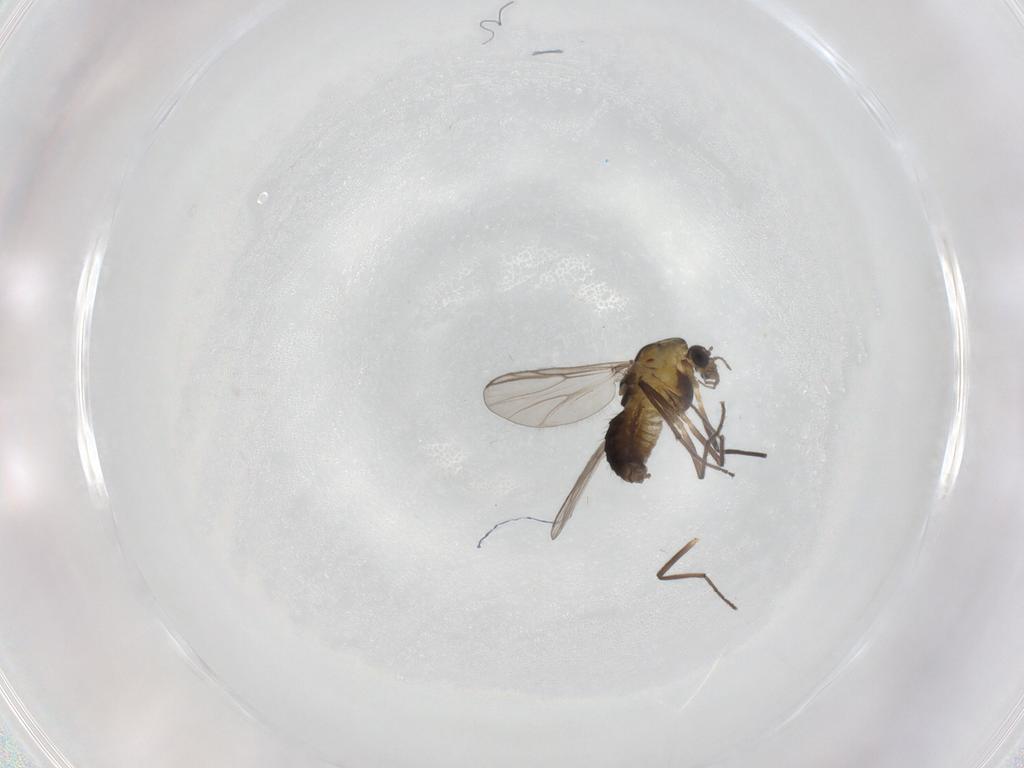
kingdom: Animalia
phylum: Arthropoda
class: Insecta
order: Diptera
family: Chironomidae
